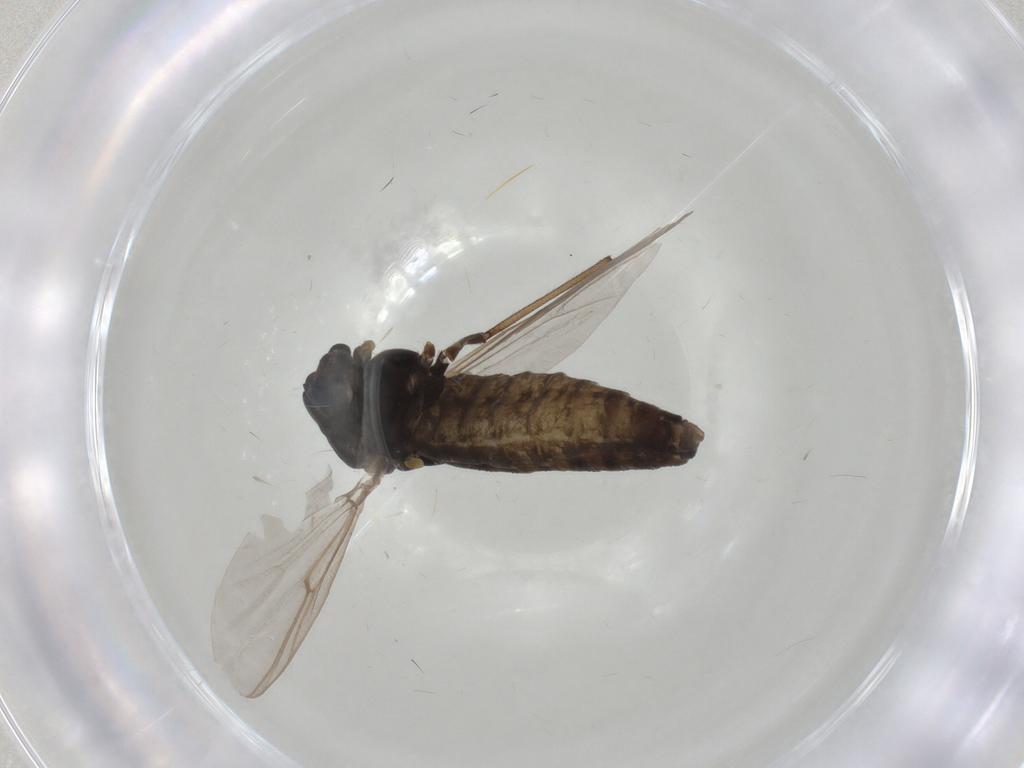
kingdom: Animalia
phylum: Arthropoda
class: Insecta
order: Diptera
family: Chironomidae
